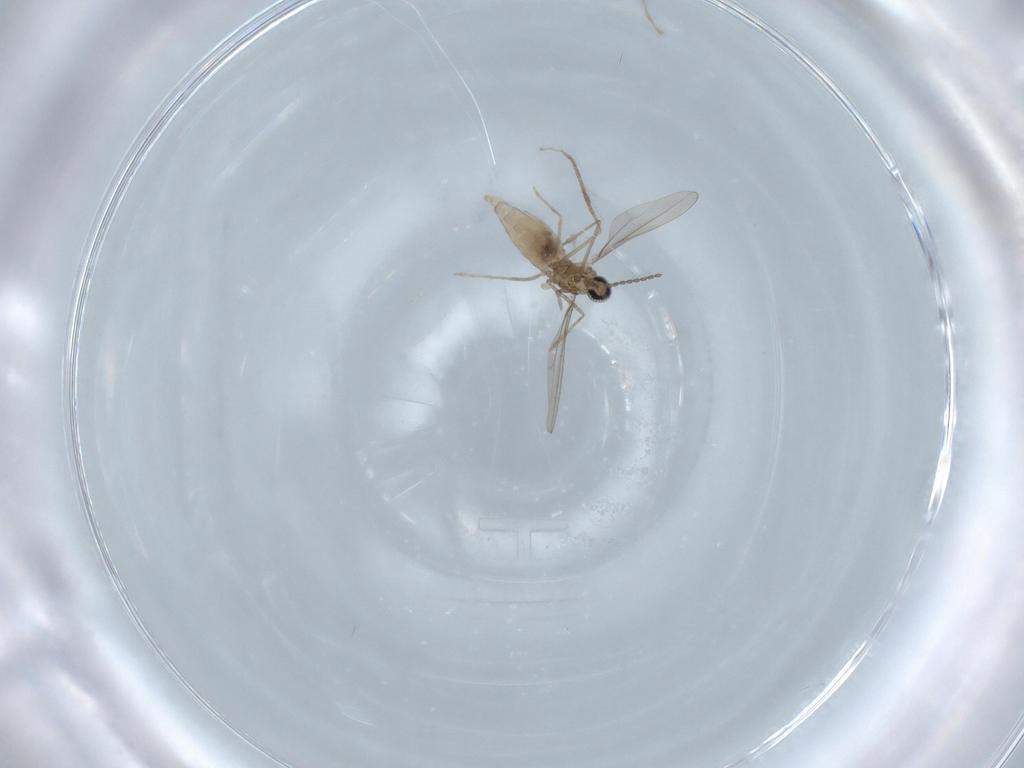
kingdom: Animalia
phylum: Arthropoda
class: Insecta
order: Diptera
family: Cecidomyiidae
